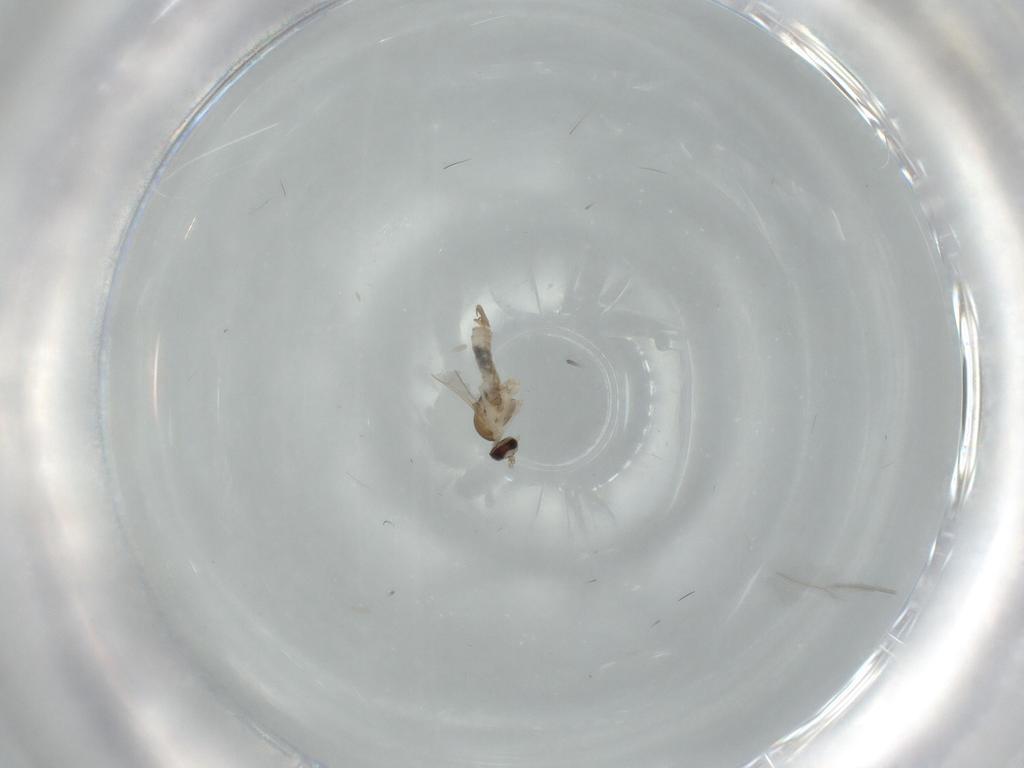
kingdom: Animalia
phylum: Arthropoda
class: Insecta
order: Diptera
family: Cecidomyiidae
